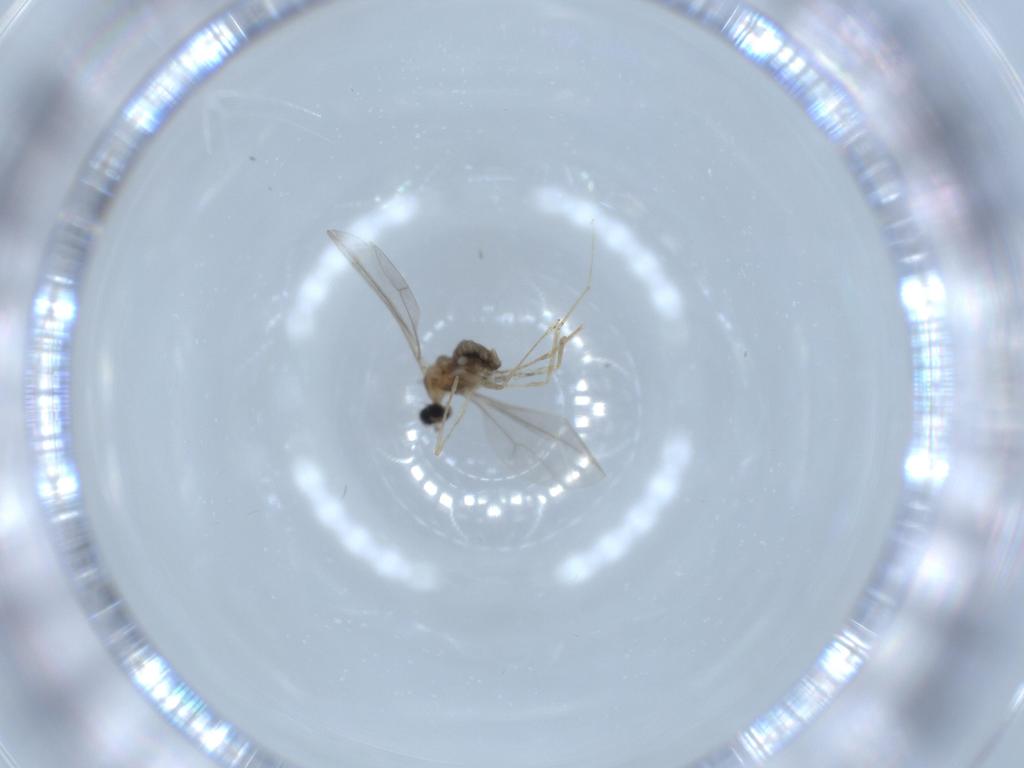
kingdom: Animalia
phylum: Arthropoda
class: Insecta
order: Diptera
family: Cecidomyiidae
